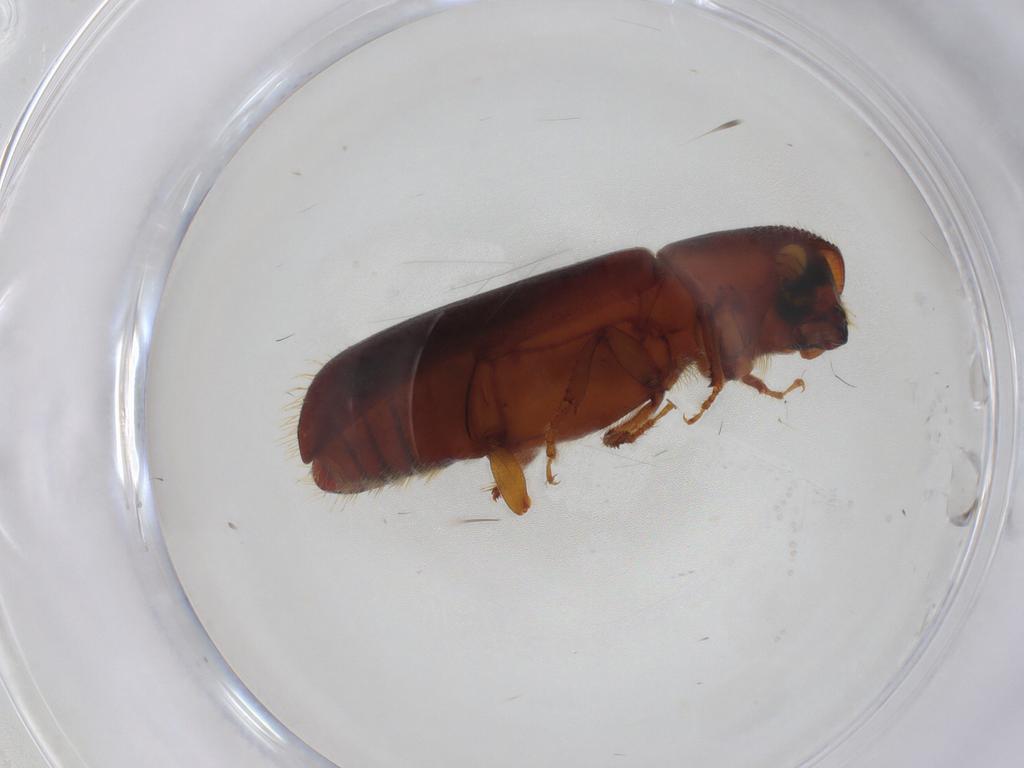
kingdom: Animalia
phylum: Arthropoda
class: Insecta
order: Coleoptera
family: Curculionidae
